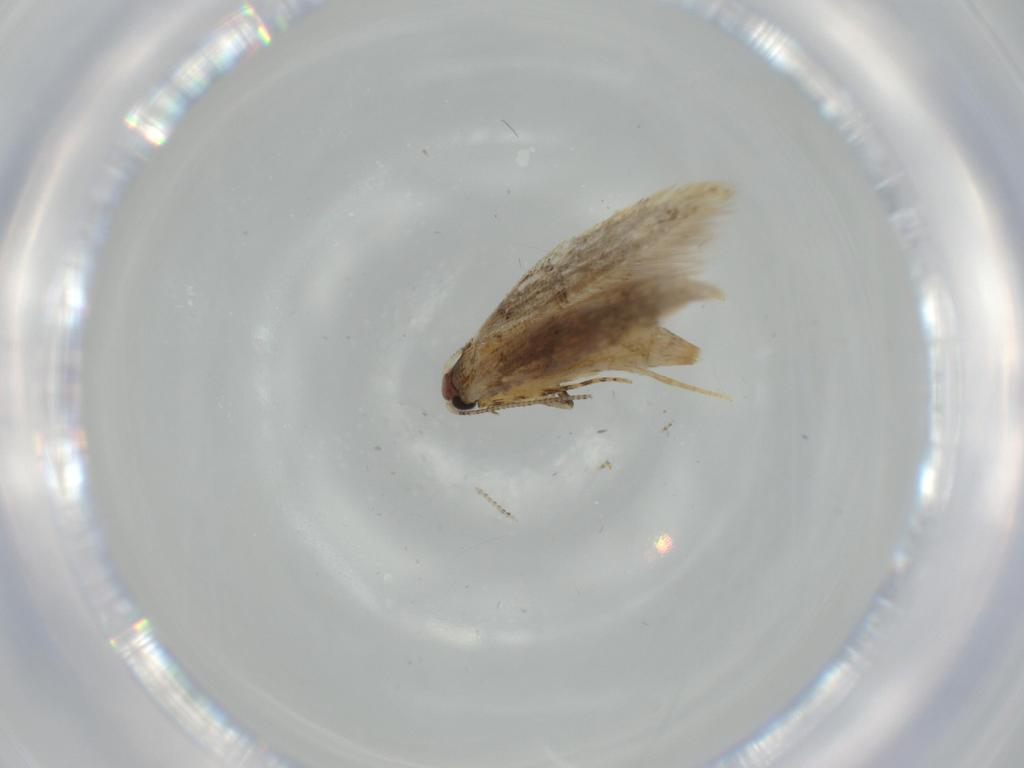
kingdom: Animalia
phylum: Arthropoda
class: Insecta
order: Lepidoptera
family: Tineidae
